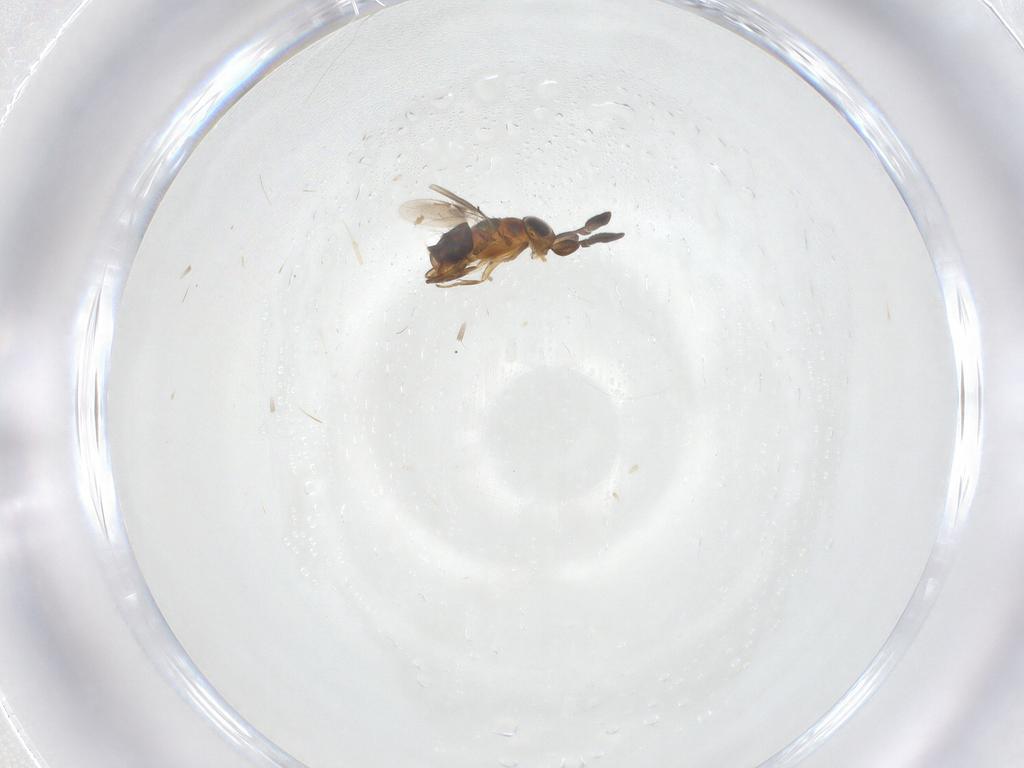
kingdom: Animalia
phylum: Arthropoda
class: Insecta
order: Hymenoptera
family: Encyrtidae
